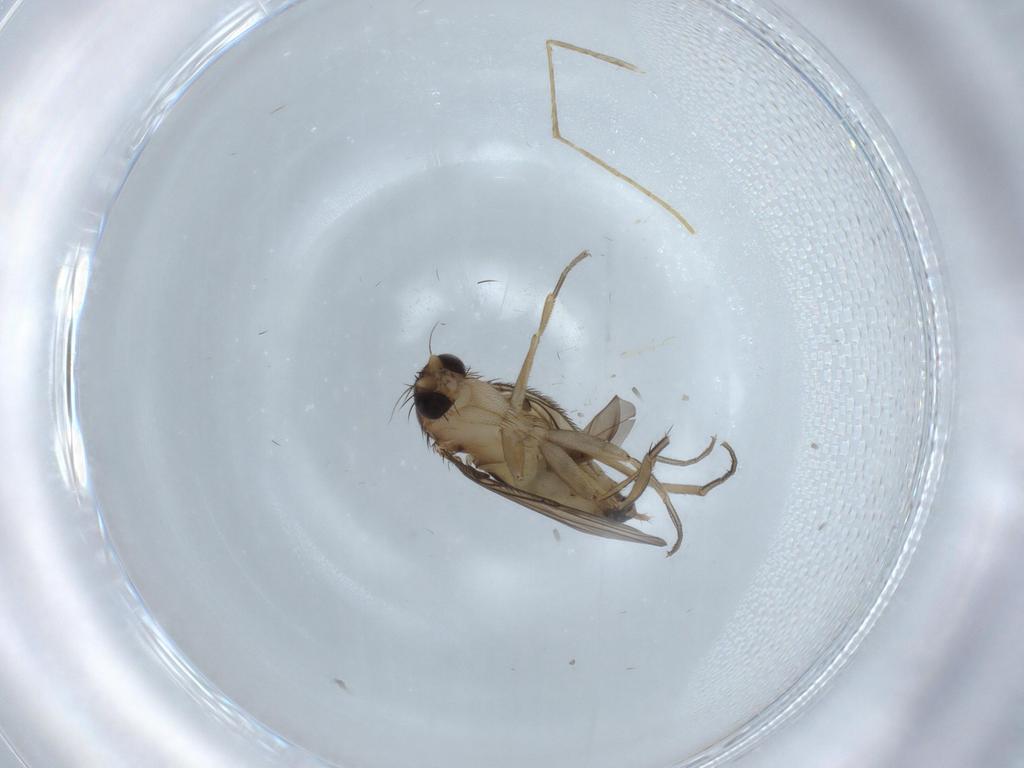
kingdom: Animalia
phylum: Arthropoda
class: Insecta
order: Diptera
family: Phoridae
